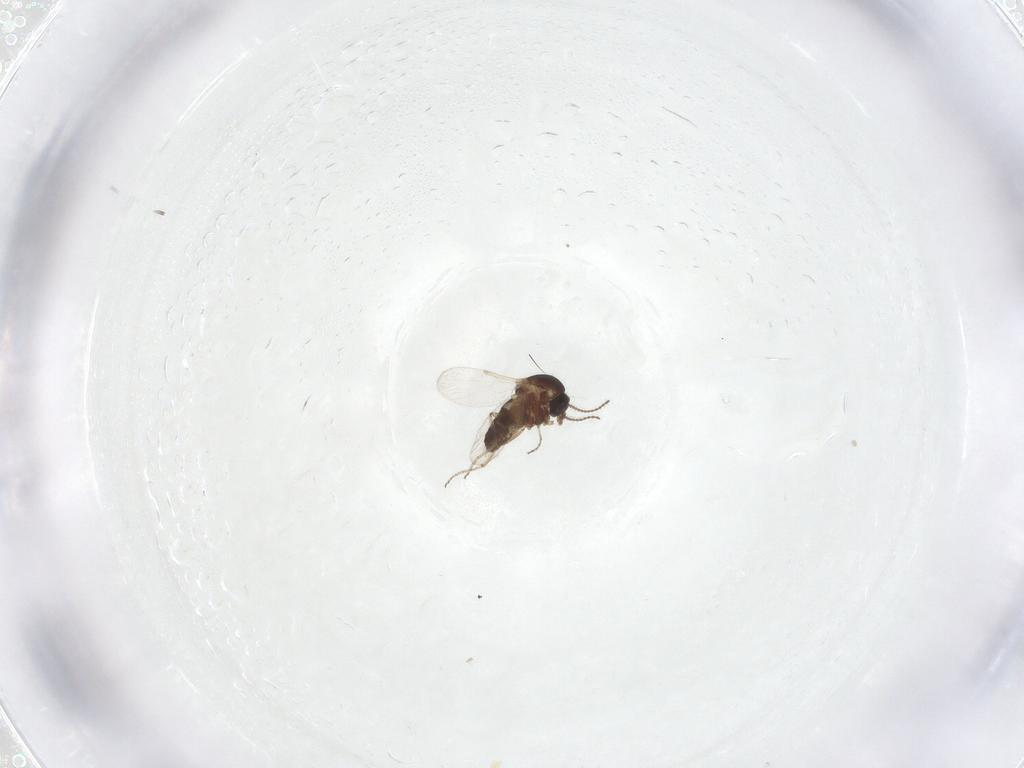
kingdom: Animalia
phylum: Arthropoda
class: Insecta
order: Diptera
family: Ceratopogonidae
